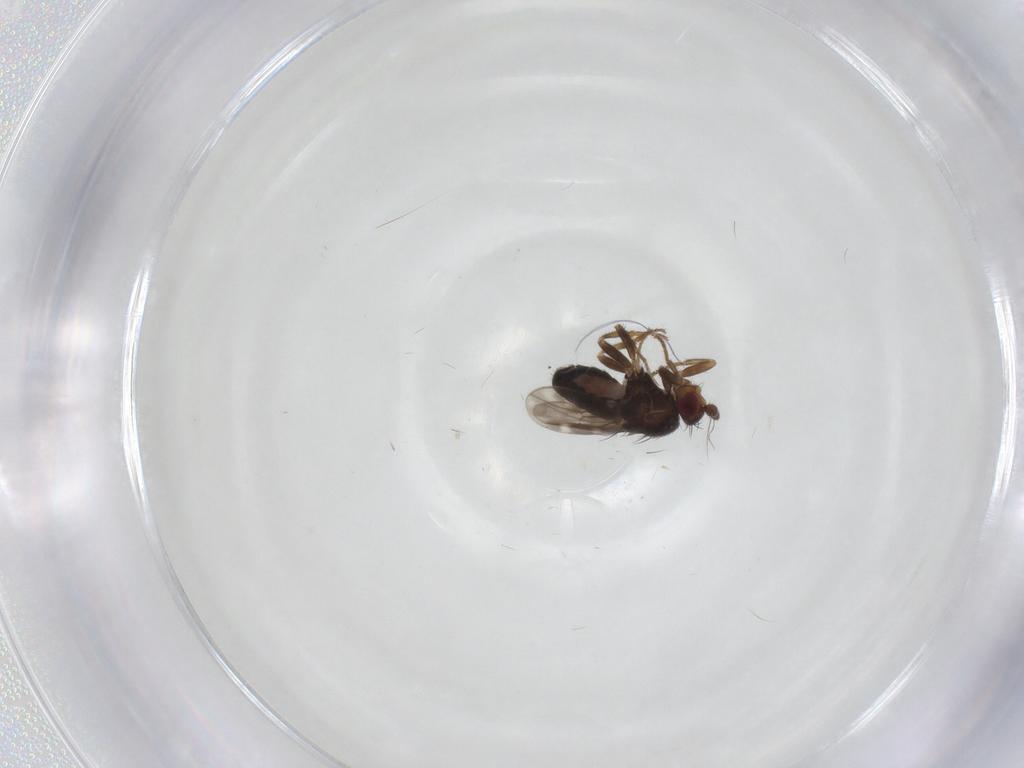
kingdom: Animalia
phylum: Arthropoda
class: Insecta
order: Diptera
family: Sphaeroceridae
